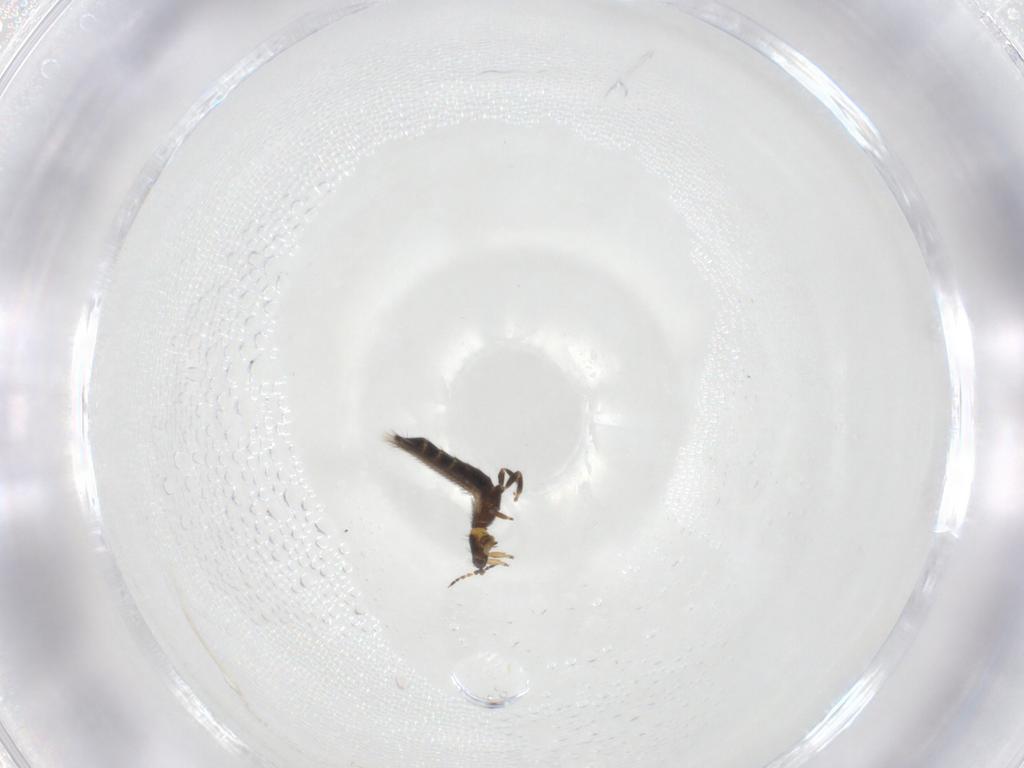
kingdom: Animalia
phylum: Arthropoda
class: Insecta
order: Thysanoptera
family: Thripidae
